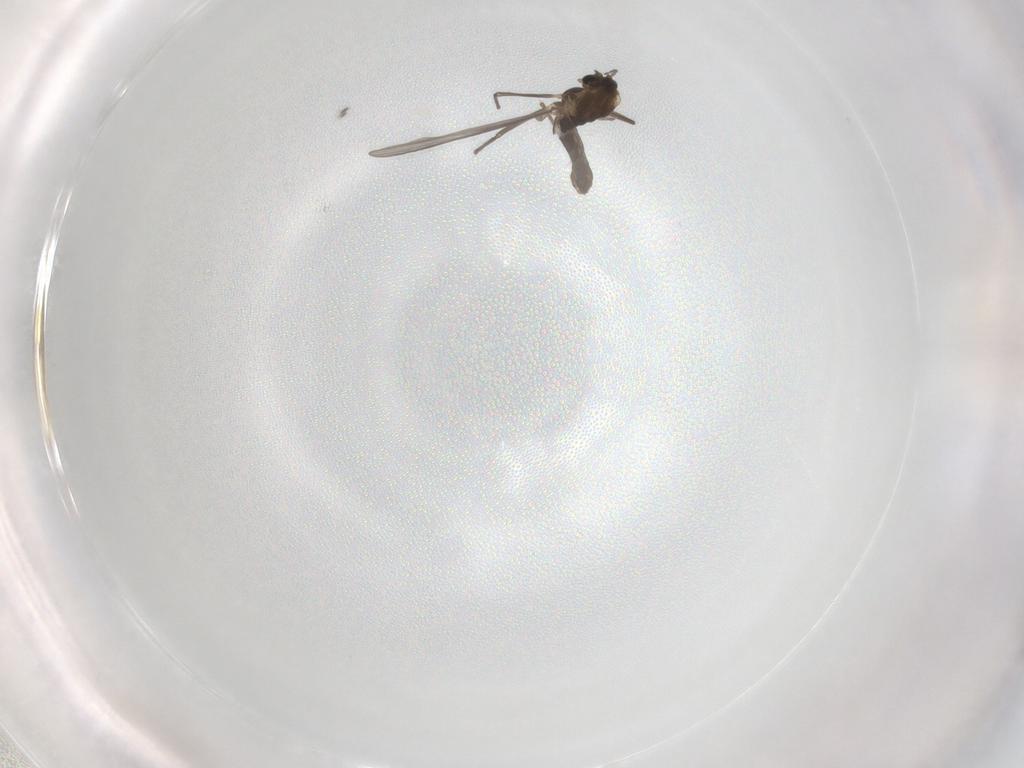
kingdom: Animalia
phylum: Arthropoda
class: Insecta
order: Diptera
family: Chironomidae
